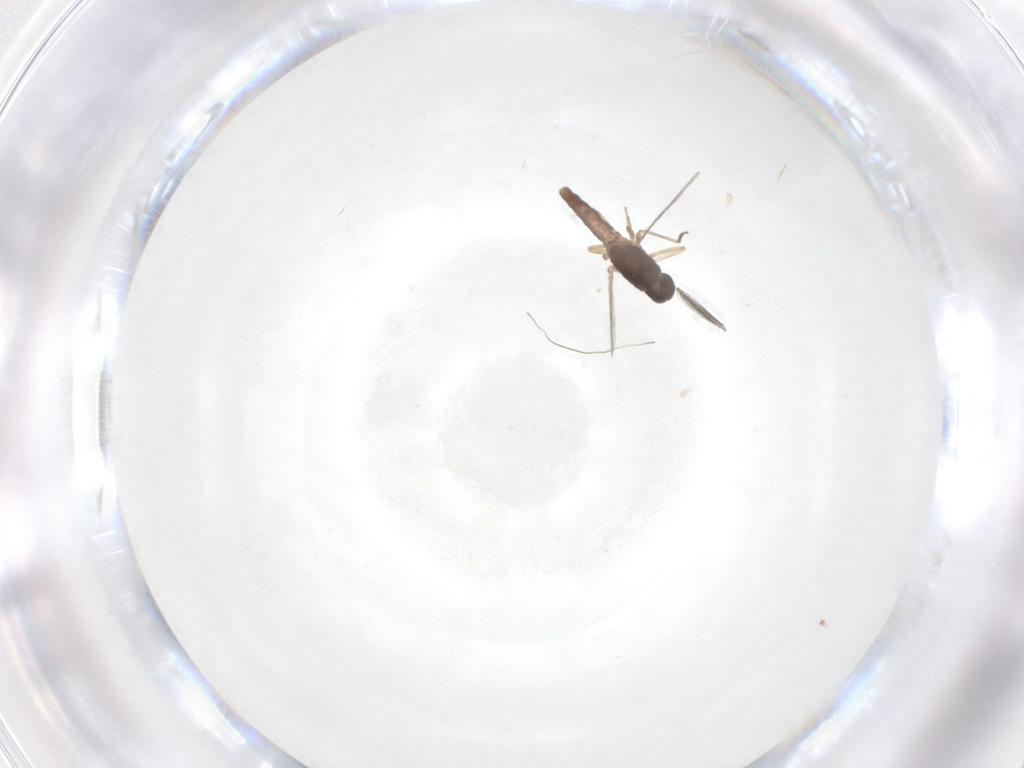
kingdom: Animalia
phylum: Arthropoda
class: Insecta
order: Diptera
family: Ceratopogonidae
